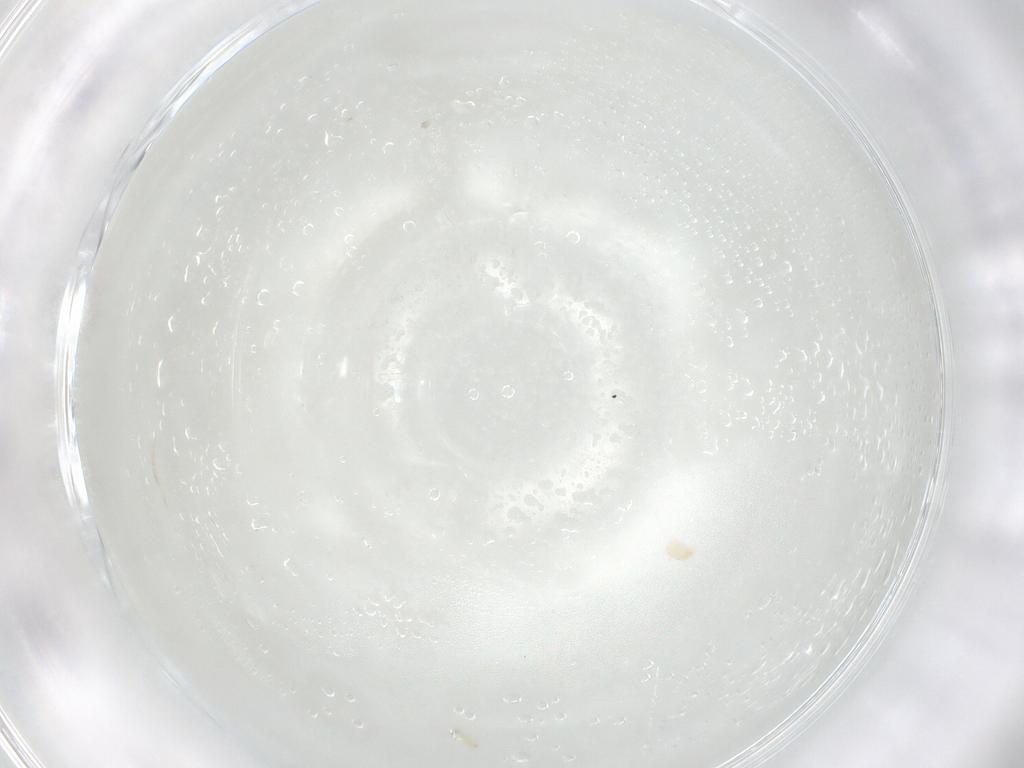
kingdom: Animalia
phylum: Arthropoda
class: Arachnida
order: Mesostigmata
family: Phytoseiidae
